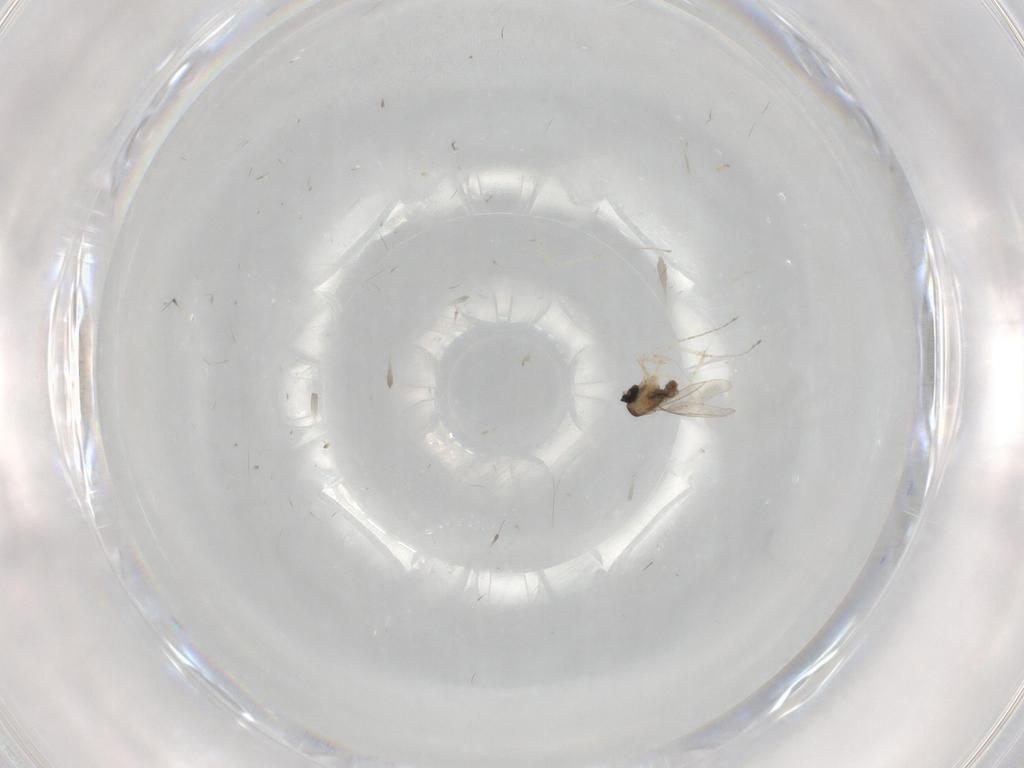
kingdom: Animalia
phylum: Arthropoda
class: Insecta
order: Diptera
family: Cecidomyiidae
